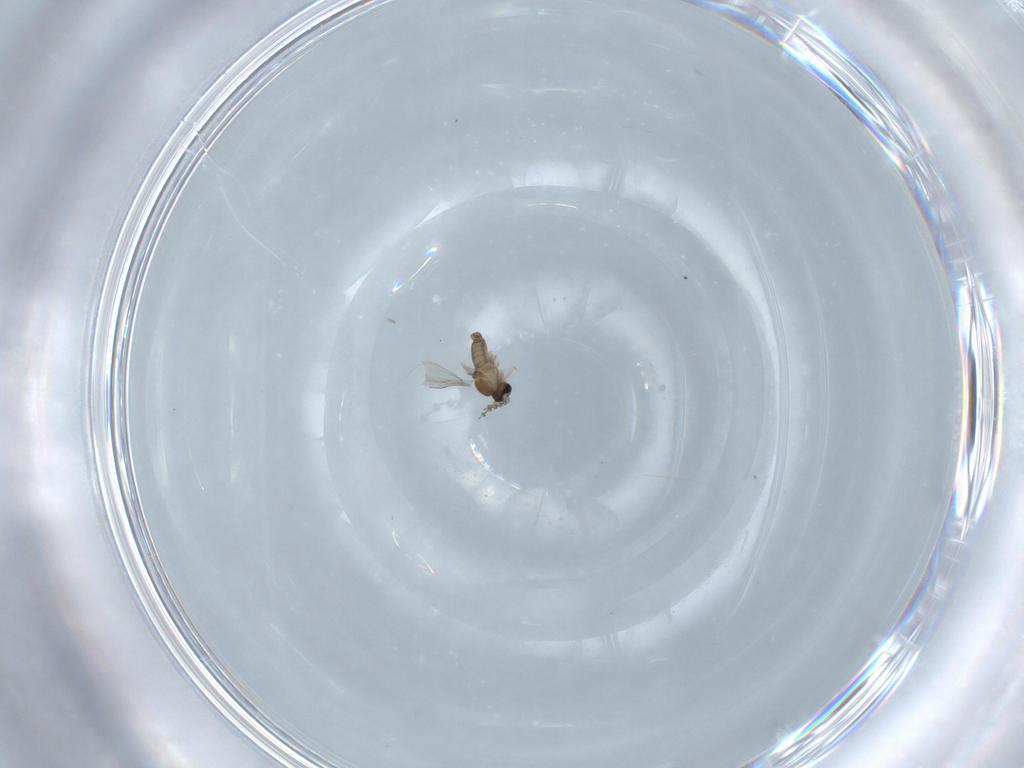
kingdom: Animalia
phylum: Arthropoda
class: Insecta
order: Diptera
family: Cecidomyiidae
